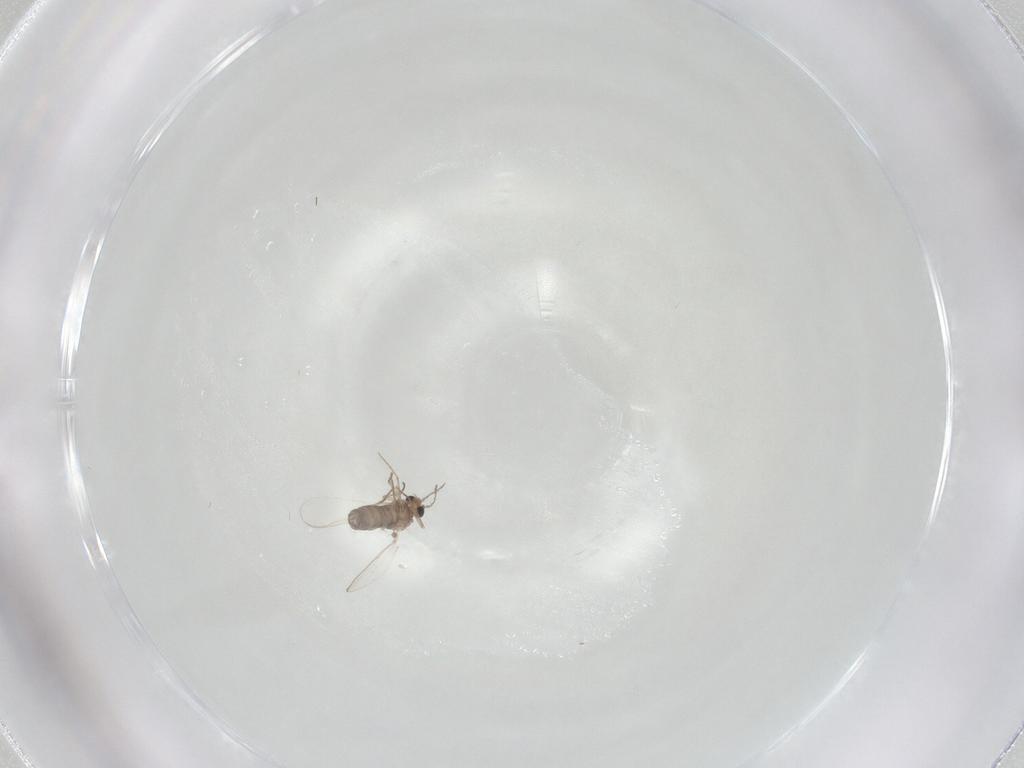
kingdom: Animalia
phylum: Arthropoda
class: Insecta
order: Diptera
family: Chironomidae
